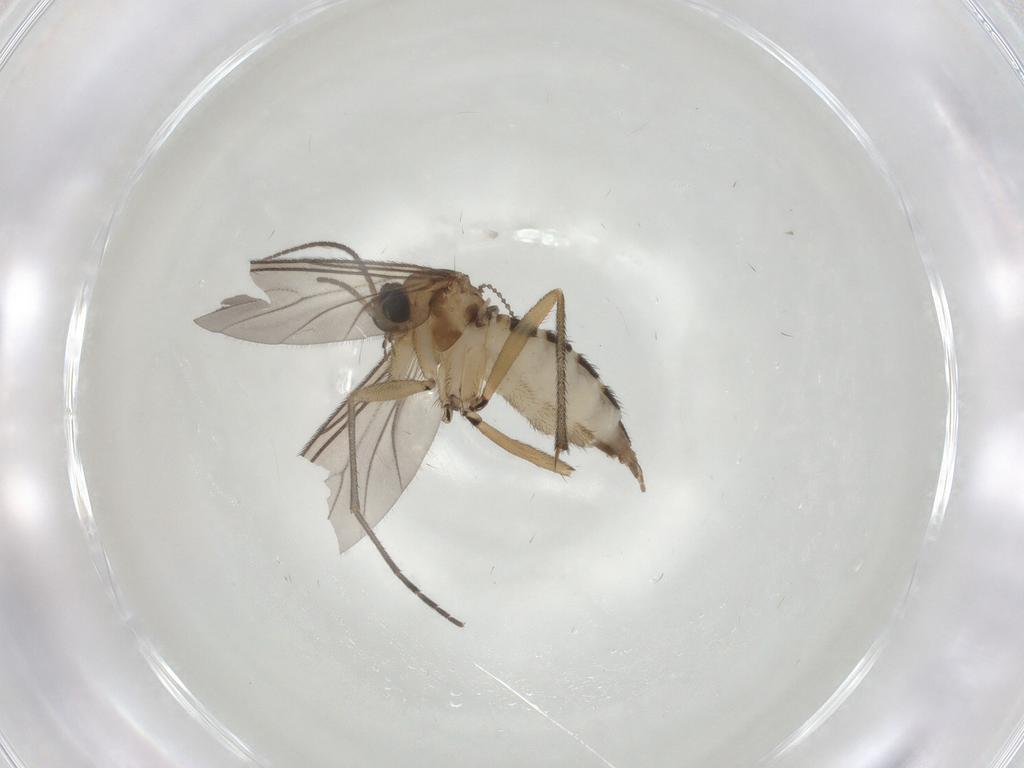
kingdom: Animalia
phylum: Arthropoda
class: Insecta
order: Diptera
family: Sciaridae
